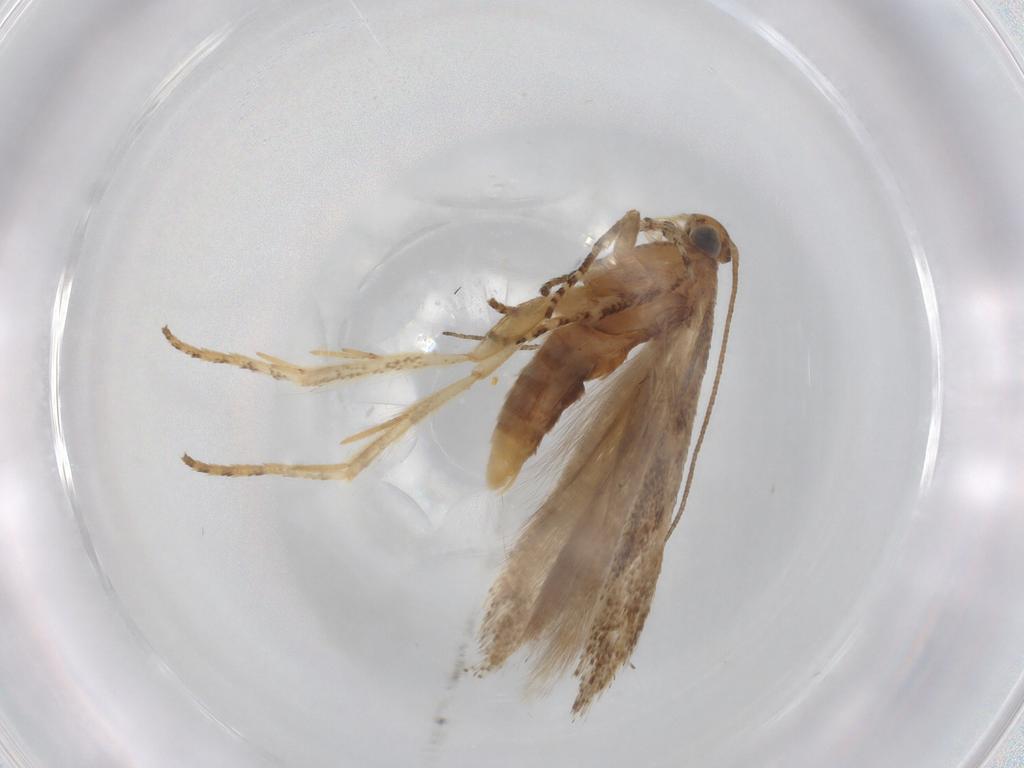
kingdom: Animalia
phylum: Arthropoda
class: Insecta
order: Lepidoptera
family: Gelechiidae
